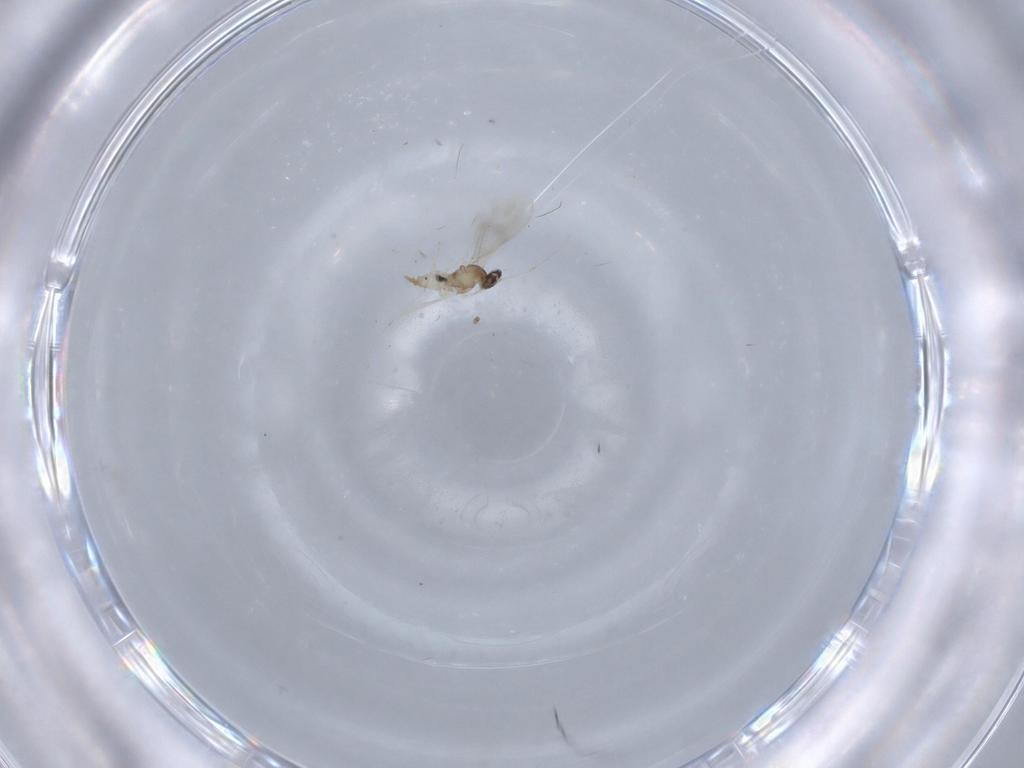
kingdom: Animalia
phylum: Arthropoda
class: Insecta
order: Diptera
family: Cecidomyiidae
